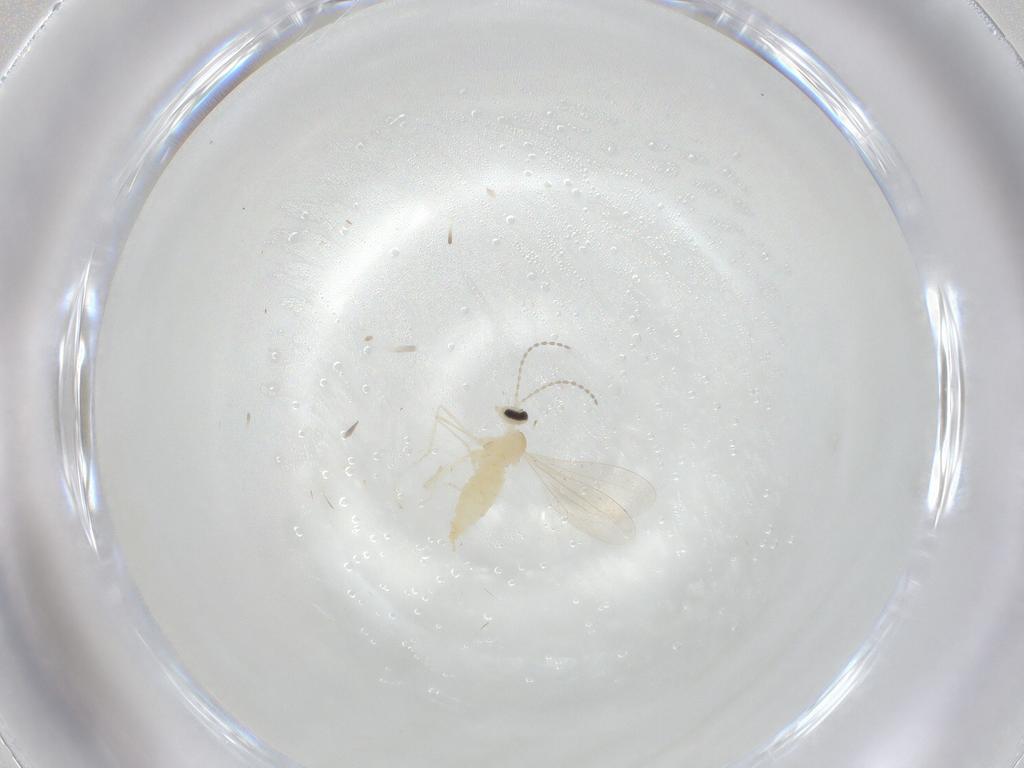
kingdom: Animalia
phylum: Arthropoda
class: Insecta
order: Diptera
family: Cecidomyiidae
